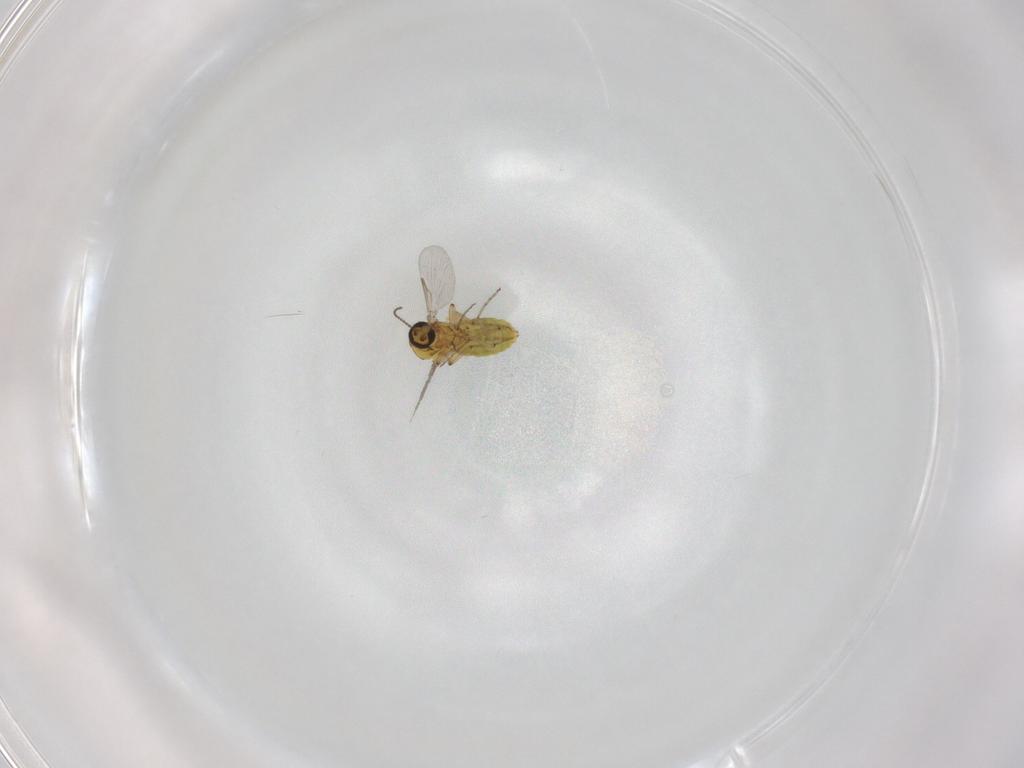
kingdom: Animalia
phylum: Arthropoda
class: Insecta
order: Diptera
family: Ceratopogonidae
